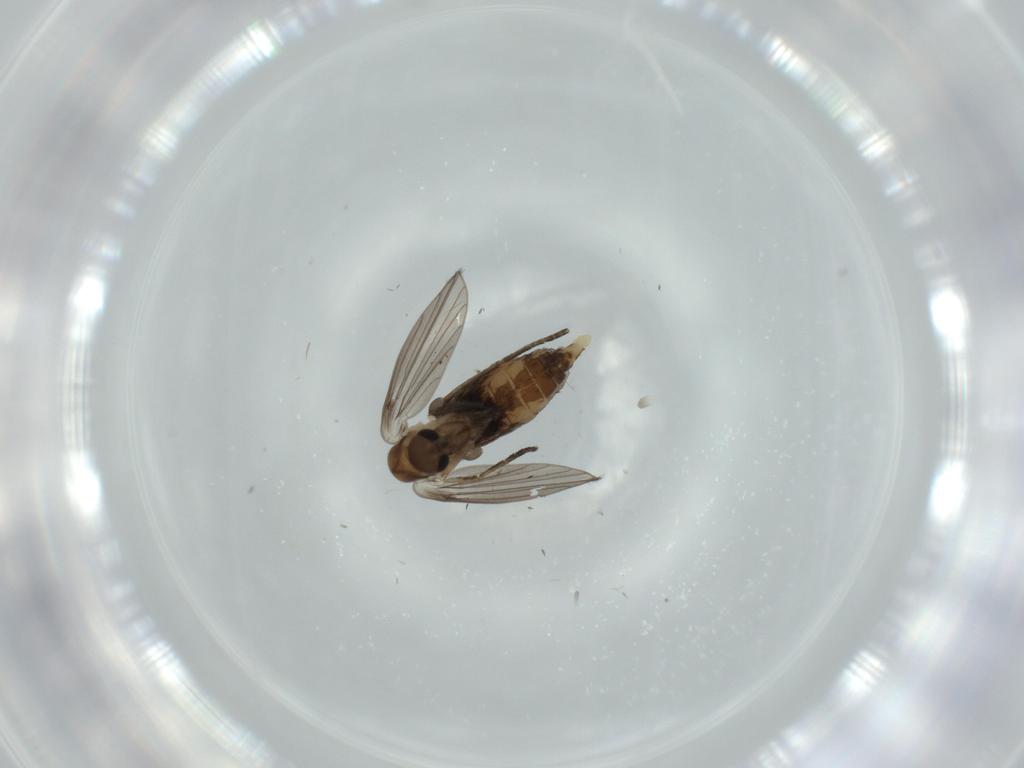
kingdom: Animalia
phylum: Arthropoda
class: Insecta
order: Diptera
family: Psychodidae
